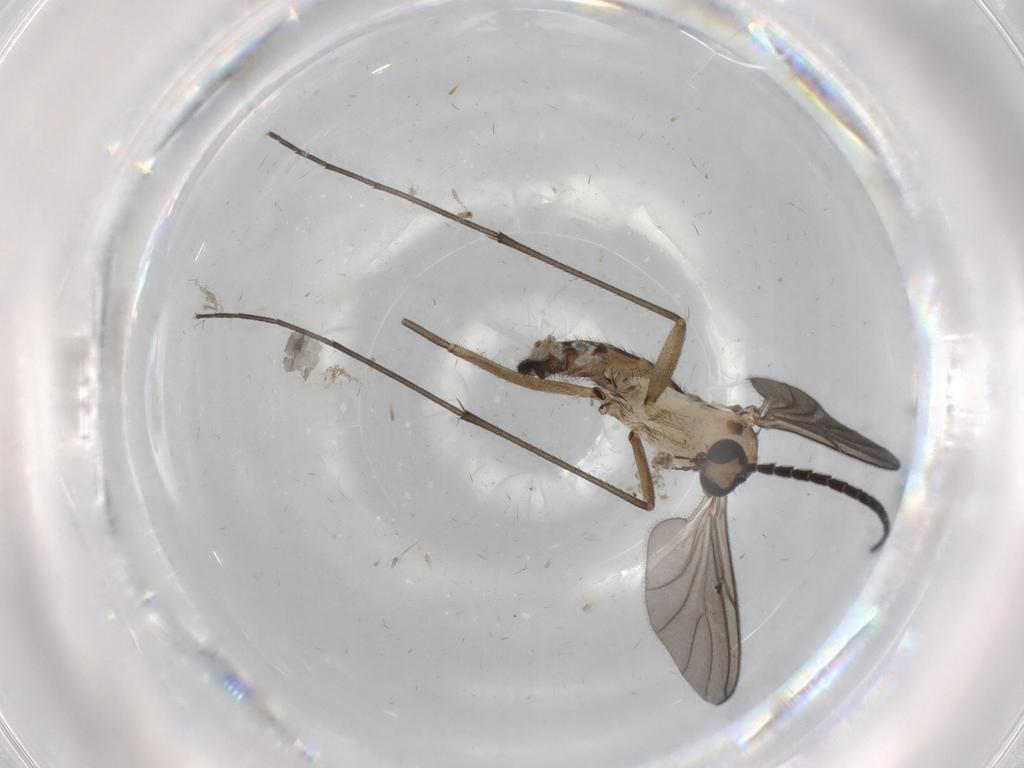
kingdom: Animalia
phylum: Arthropoda
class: Insecta
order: Diptera
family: Sciaridae
